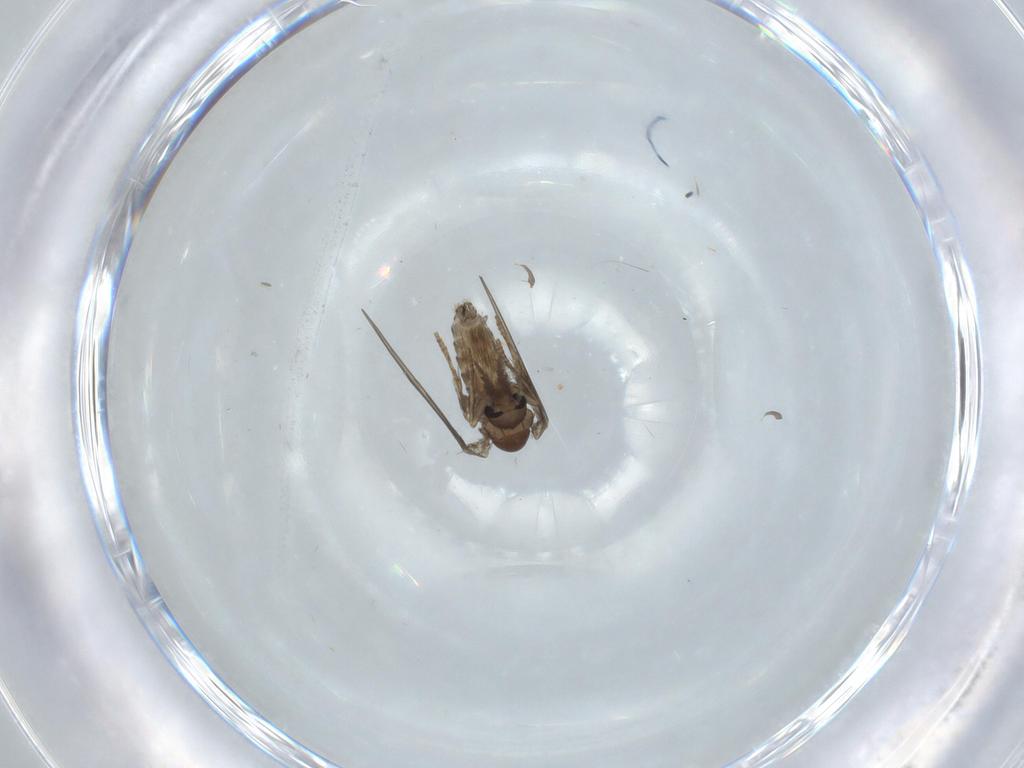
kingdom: Animalia
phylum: Arthropoda
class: Insecta
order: Diptera
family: Psychodidae
